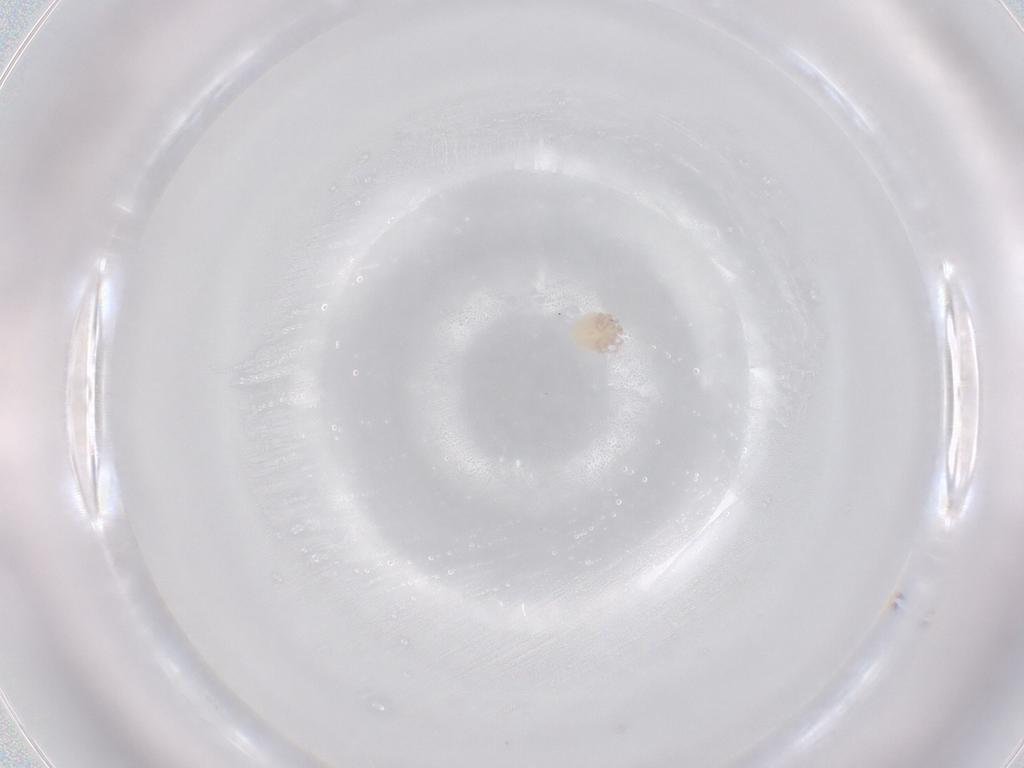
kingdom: Animalia
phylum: Arthropoda
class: Arachnida
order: Trombidiformes
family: Lebertiidae
